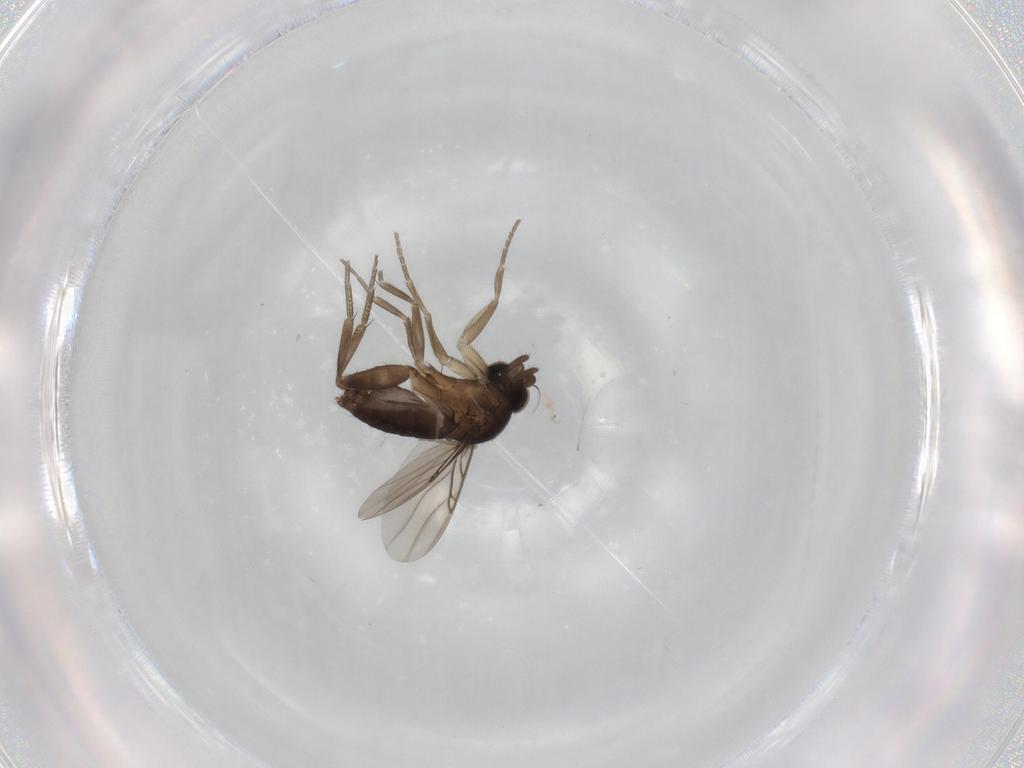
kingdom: Animalia
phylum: Arthropoda
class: Insecta
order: Diptera
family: Phoridae
